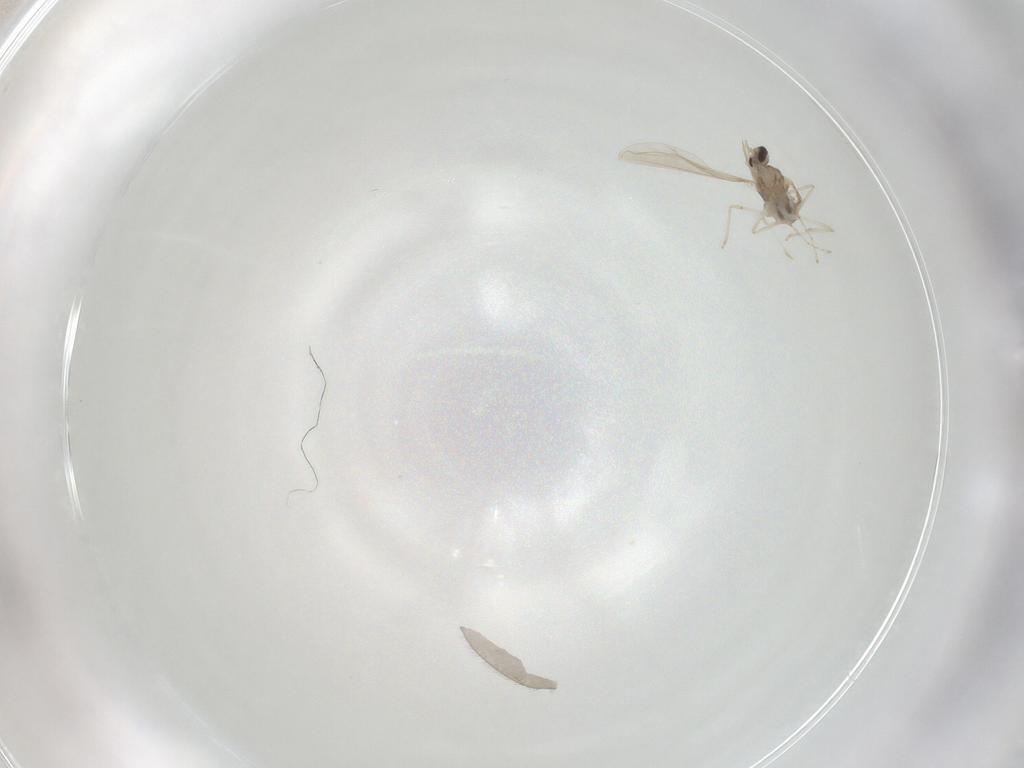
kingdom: Animalia
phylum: Arthropoda
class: Insecta
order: Diptera
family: Cecidomyiidae
